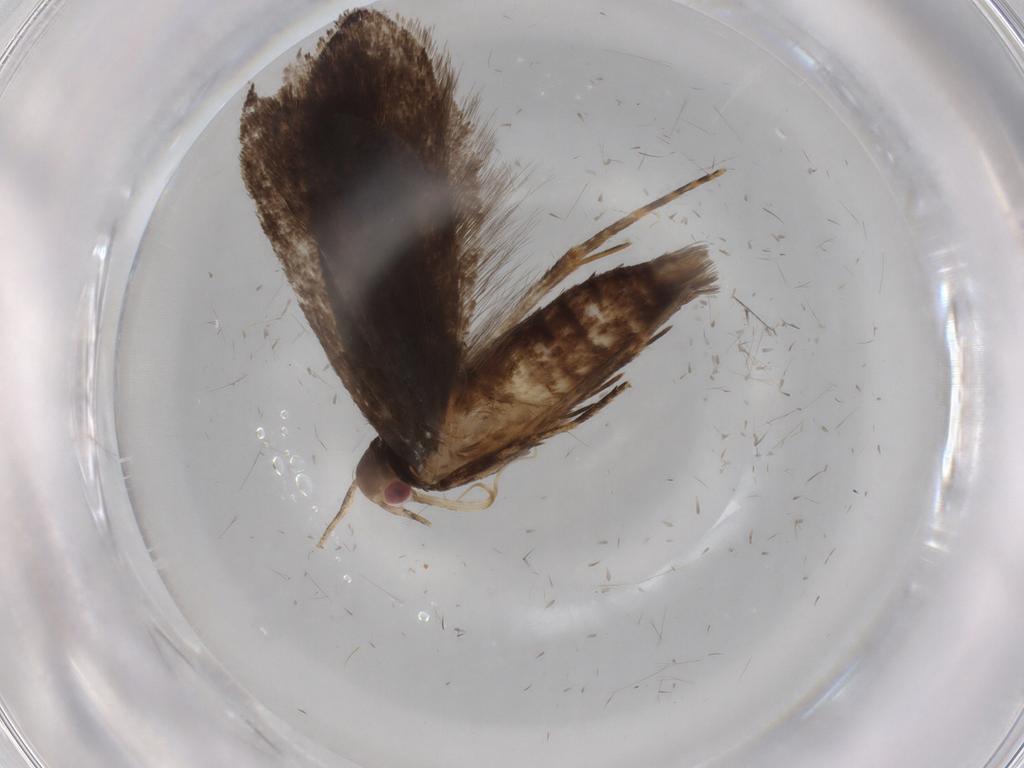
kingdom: Animalia
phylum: Arthropoda
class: Insecta
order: Lepidoptera
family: Gelechiidae
